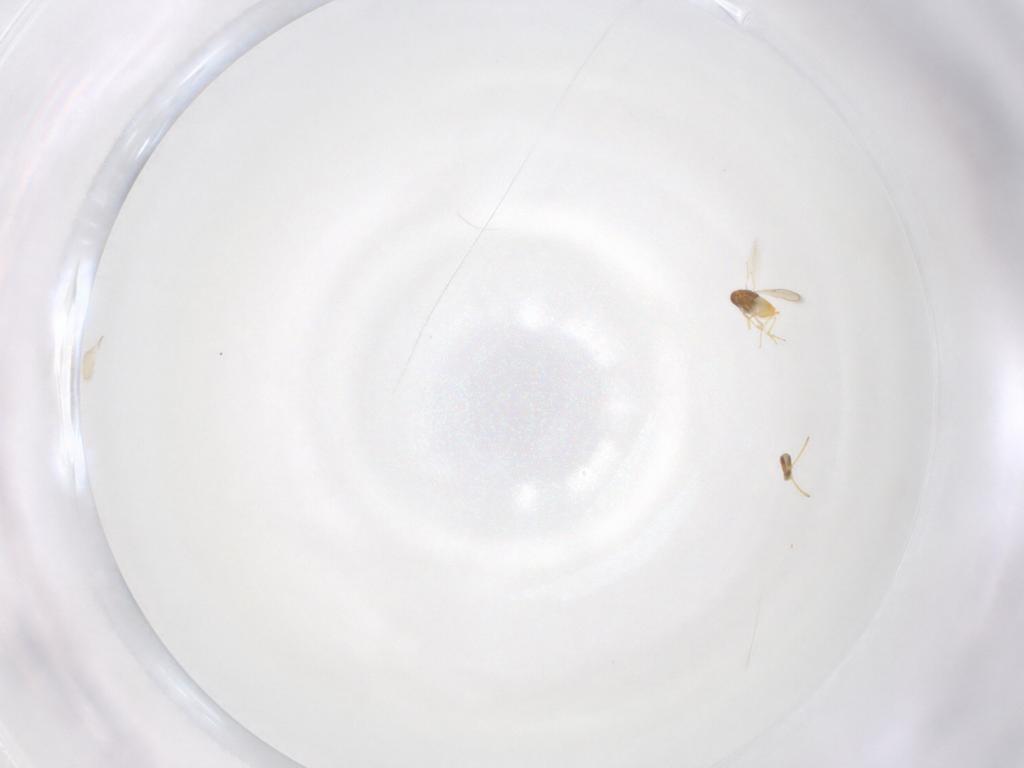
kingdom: Animalia
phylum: Arthropoda
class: Insecta
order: Hymenoptera
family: Aphelinidae
